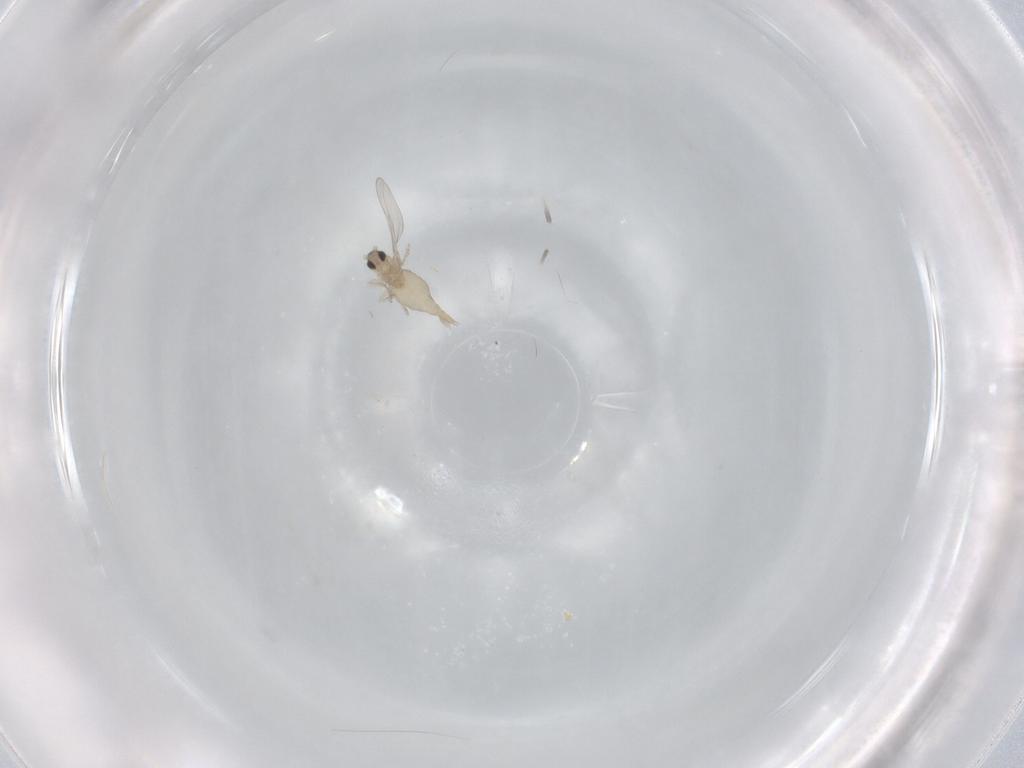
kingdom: Animalia
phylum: Arthropoda
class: Insecta
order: Diptera
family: Cecidomyiidae
